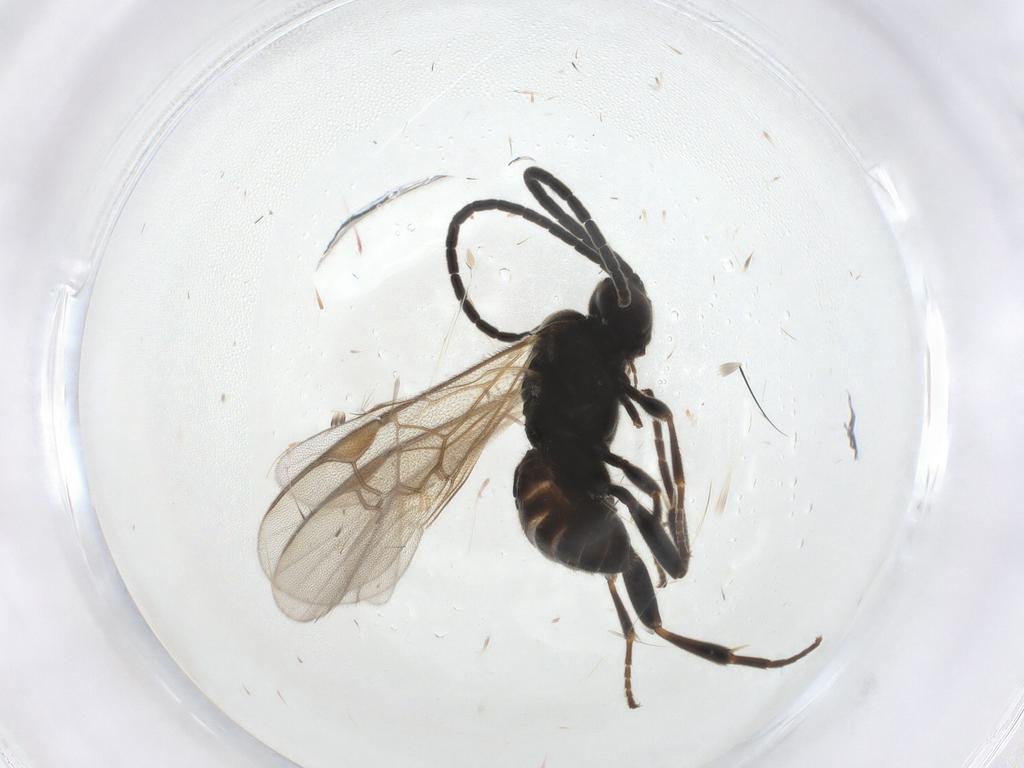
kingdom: Animalia
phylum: Arthropoda
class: Insecta
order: Hymenoptera
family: Braconidae
